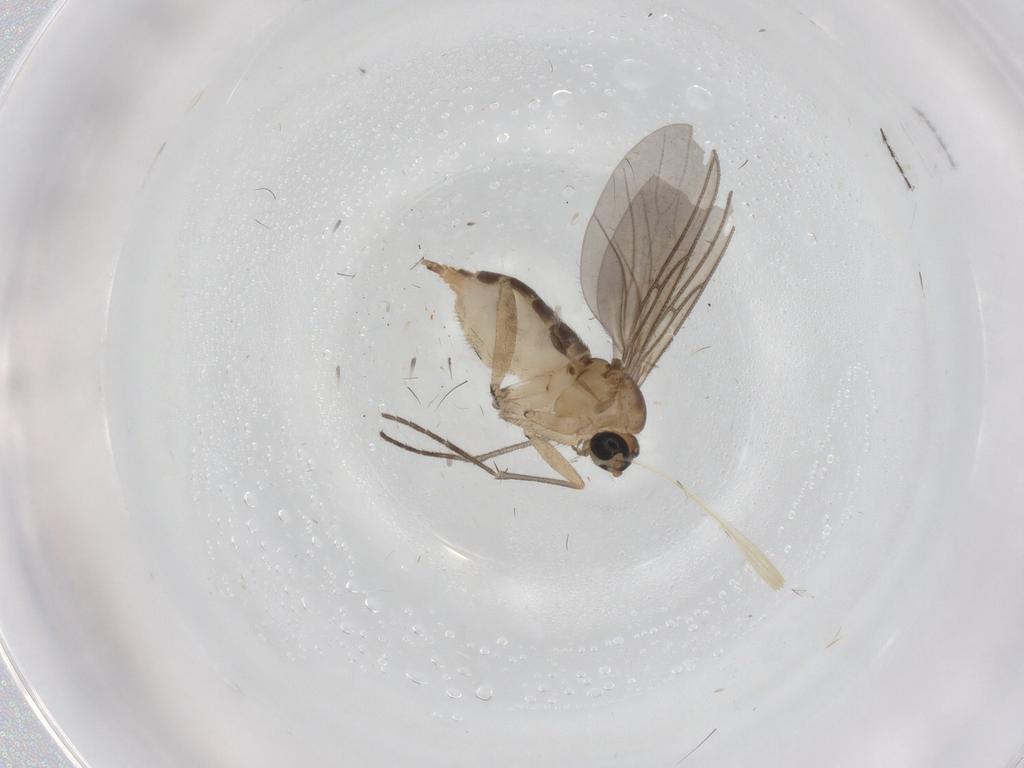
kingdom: Animalia
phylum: Arthropoda
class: Insecta
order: Diptera
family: Sciaridae
